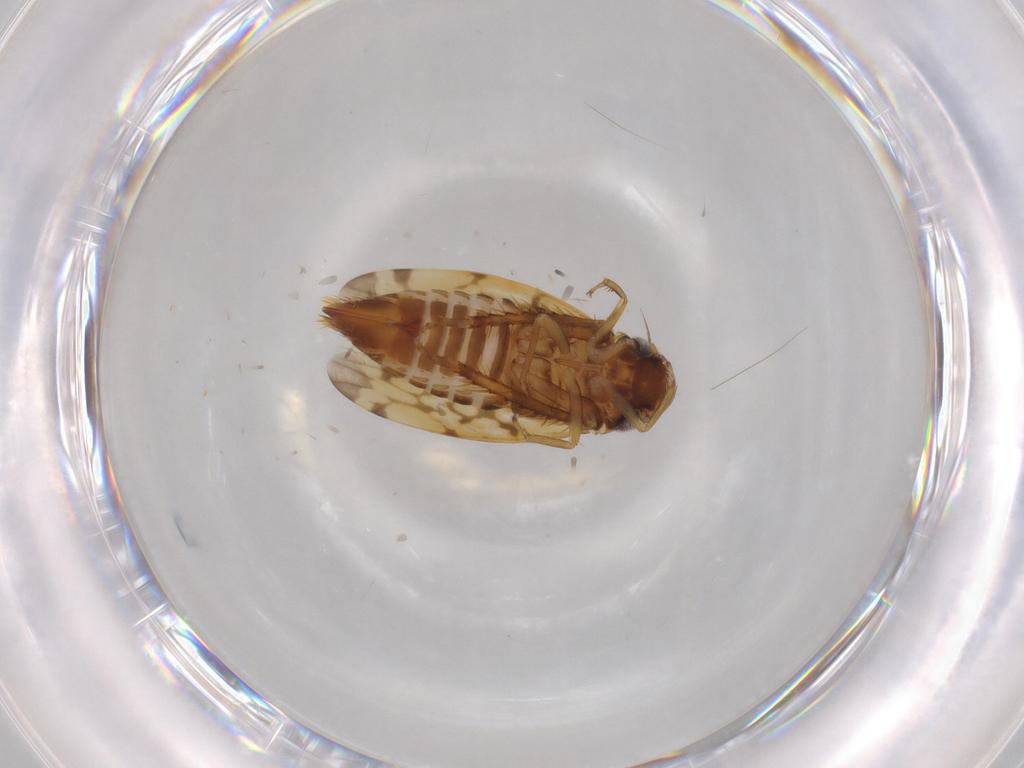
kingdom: Animalia
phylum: Arthropoda
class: Insecta
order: Hemiptera
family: Cicadellidae
